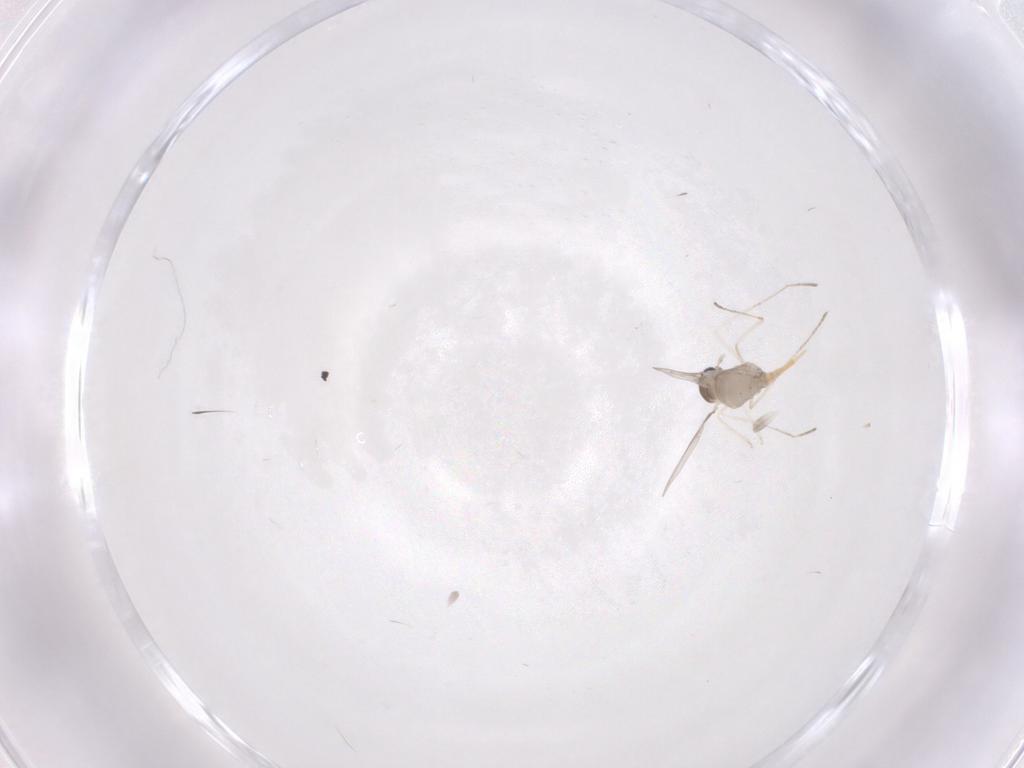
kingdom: Animalia
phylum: Arthropoda
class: Insecta
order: Diptera
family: Cecidomyiidae
